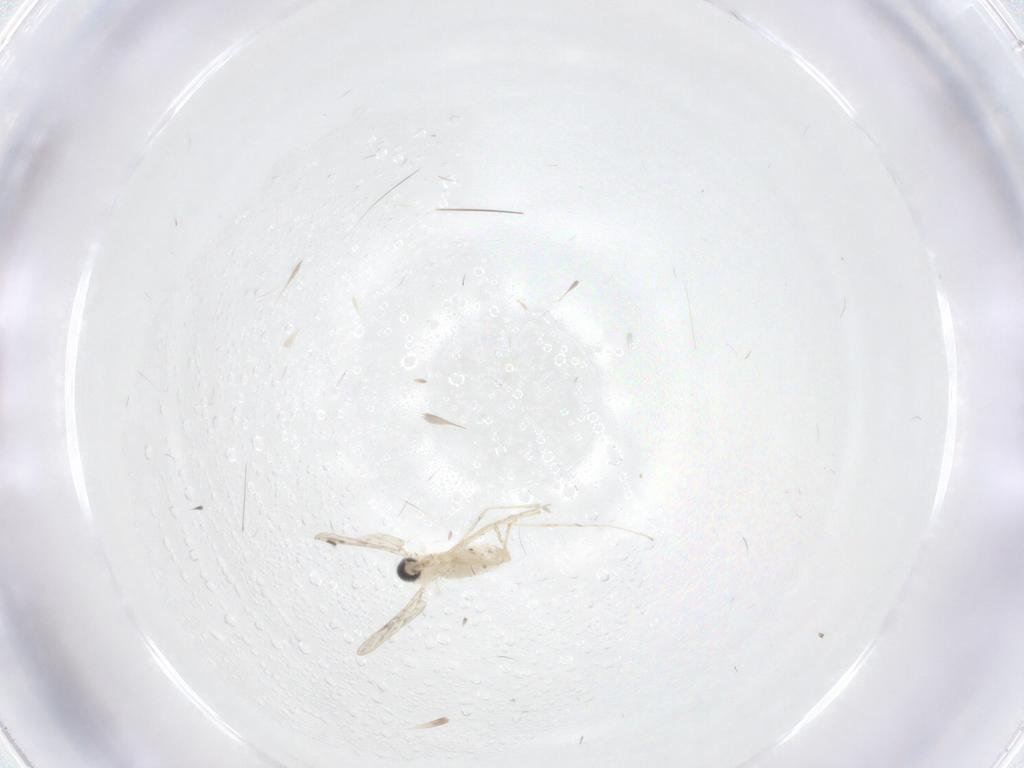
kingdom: Animalia
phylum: Arthropoda
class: Insecta
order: Diptera
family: Cecidomyiidae
